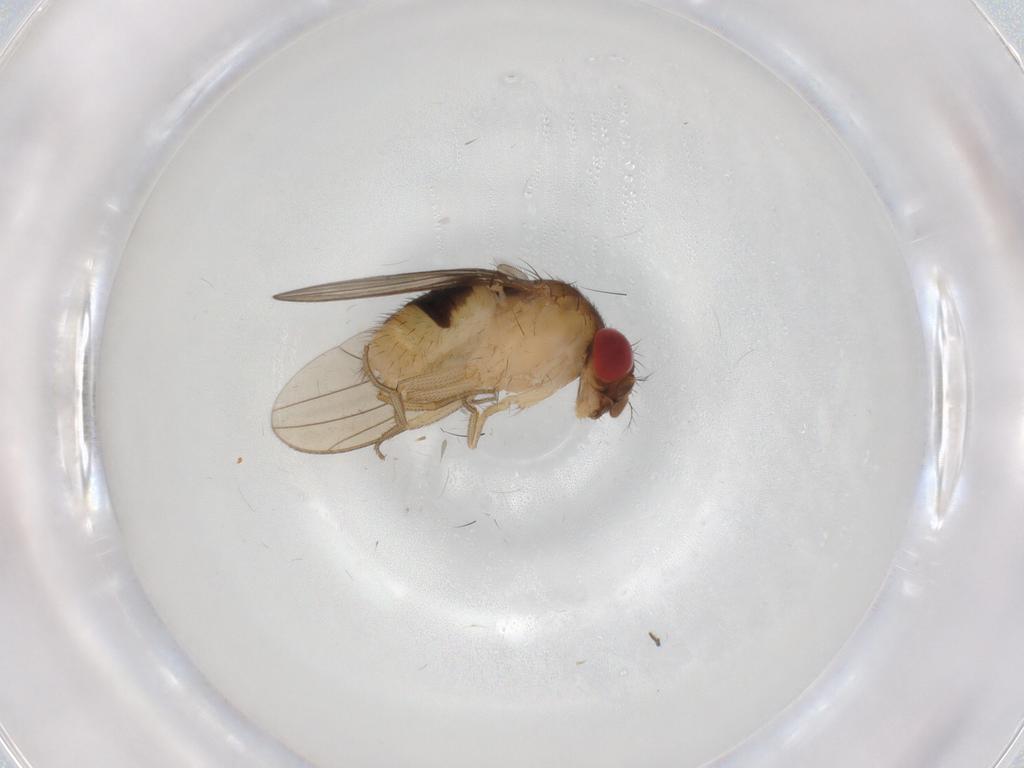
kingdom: Animalia
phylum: Arthropoda
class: Insecta
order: Diptera
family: Drosophilidae
